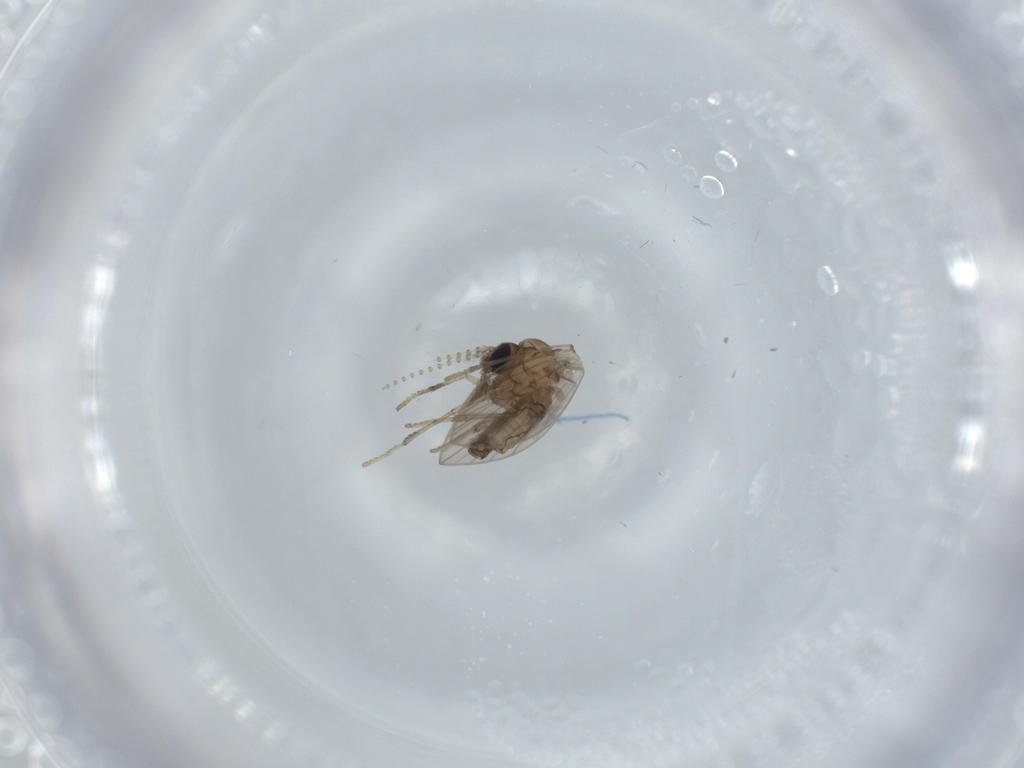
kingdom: Animalia
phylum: Arthropoda
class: Insecta
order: Diptera
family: Psychodidae
